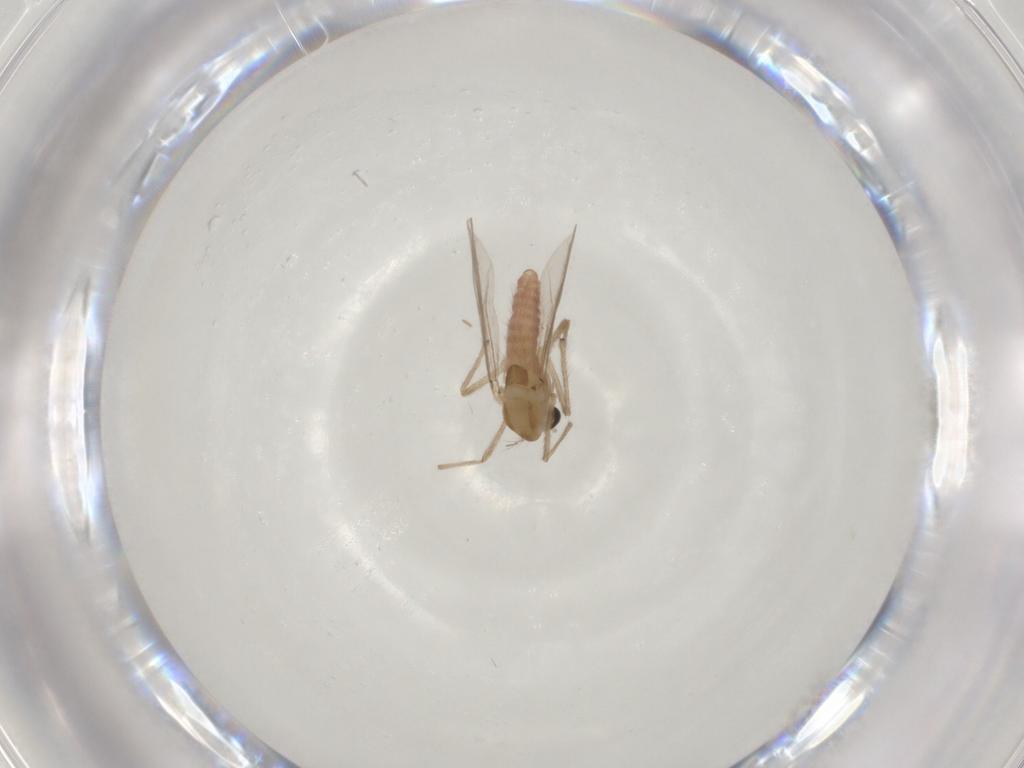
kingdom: Animalia
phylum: Arthropoda
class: Insecta
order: Diptera
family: Chironomidae
